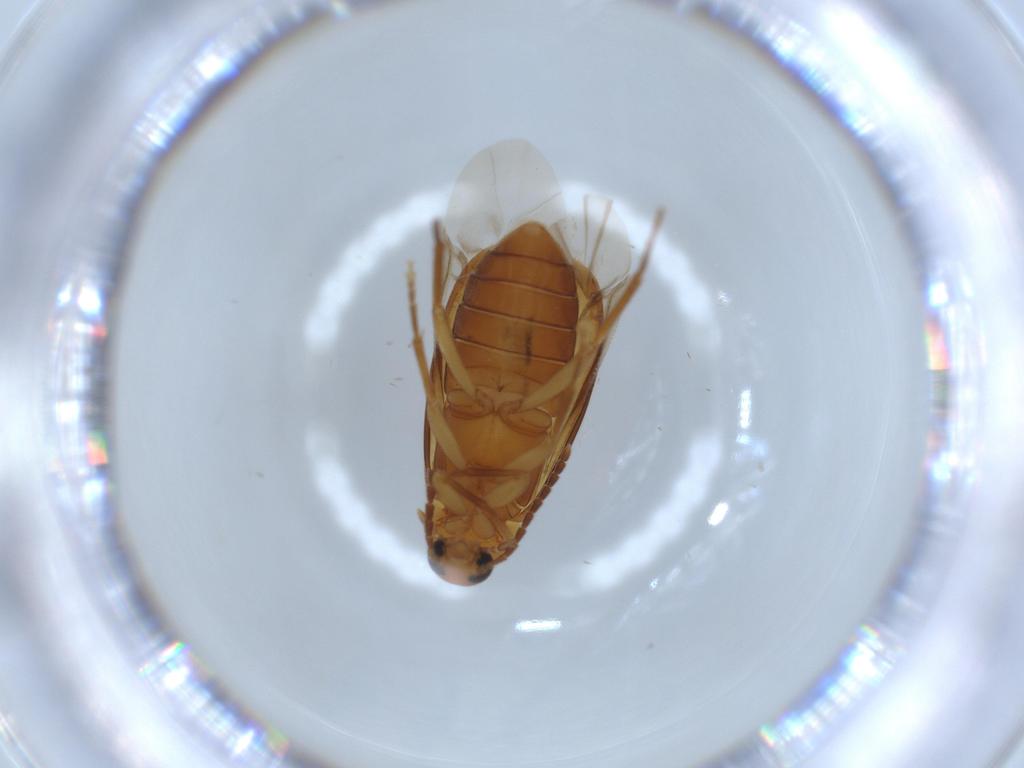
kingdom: Animalia
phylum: Arthropoda
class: Insecta
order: Coleoptera
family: Scraptiidae
